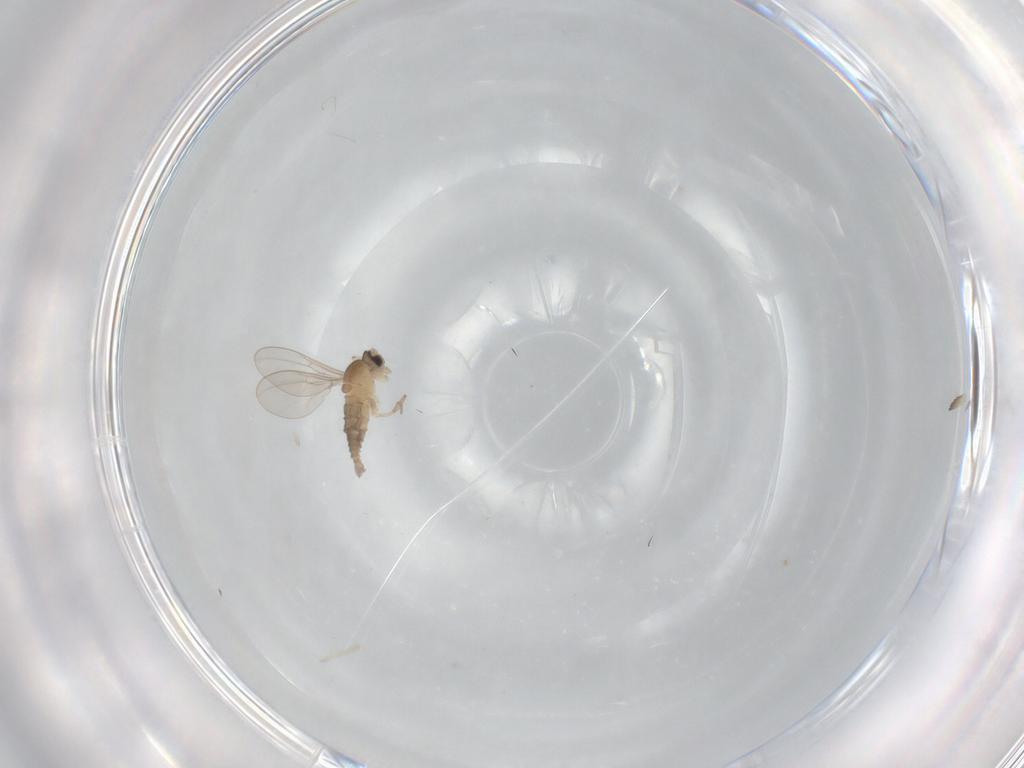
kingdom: Animalia
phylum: Arthropoda
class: Insecta
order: Diptera
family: Cecidomyiidae
